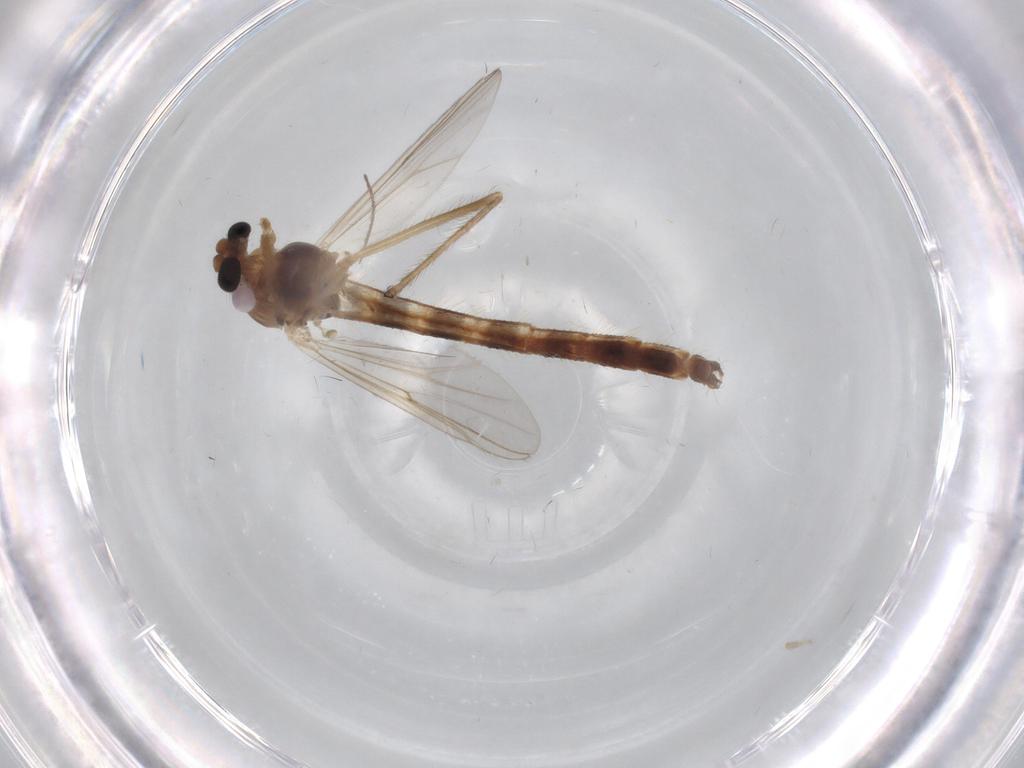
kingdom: Animalia
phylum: Arthropoda
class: Insecta
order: Diptera
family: Chironomidae
